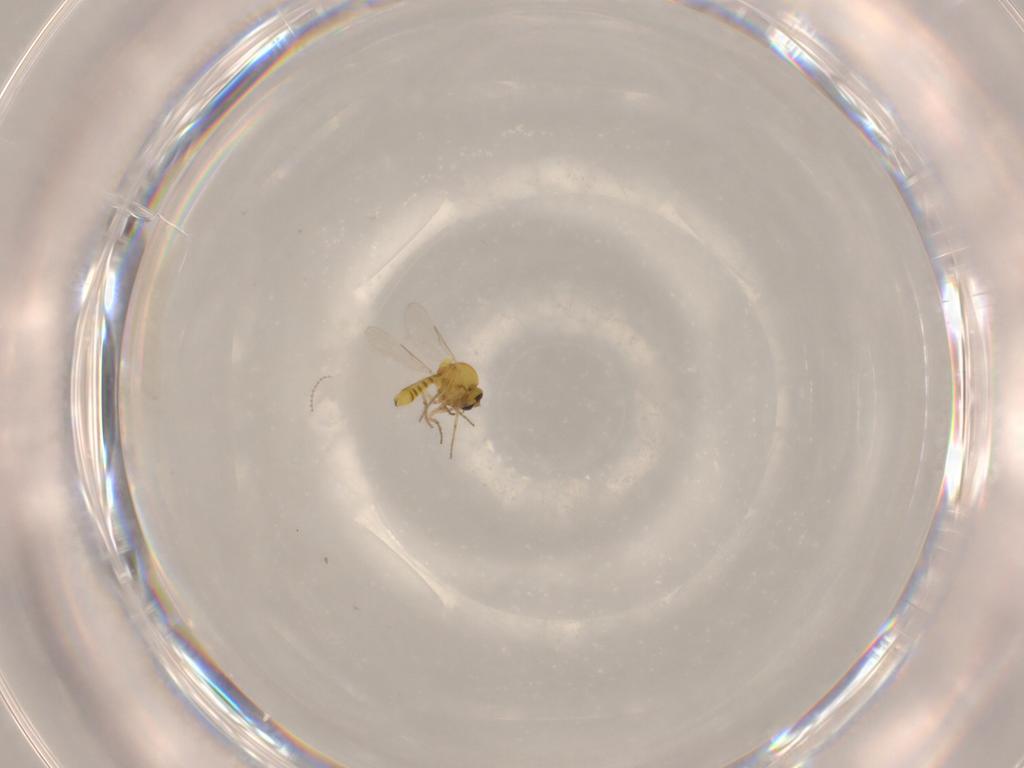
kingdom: Animalia
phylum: Arthropoda
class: Insecta
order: Diptera
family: Ceratopogonidae
